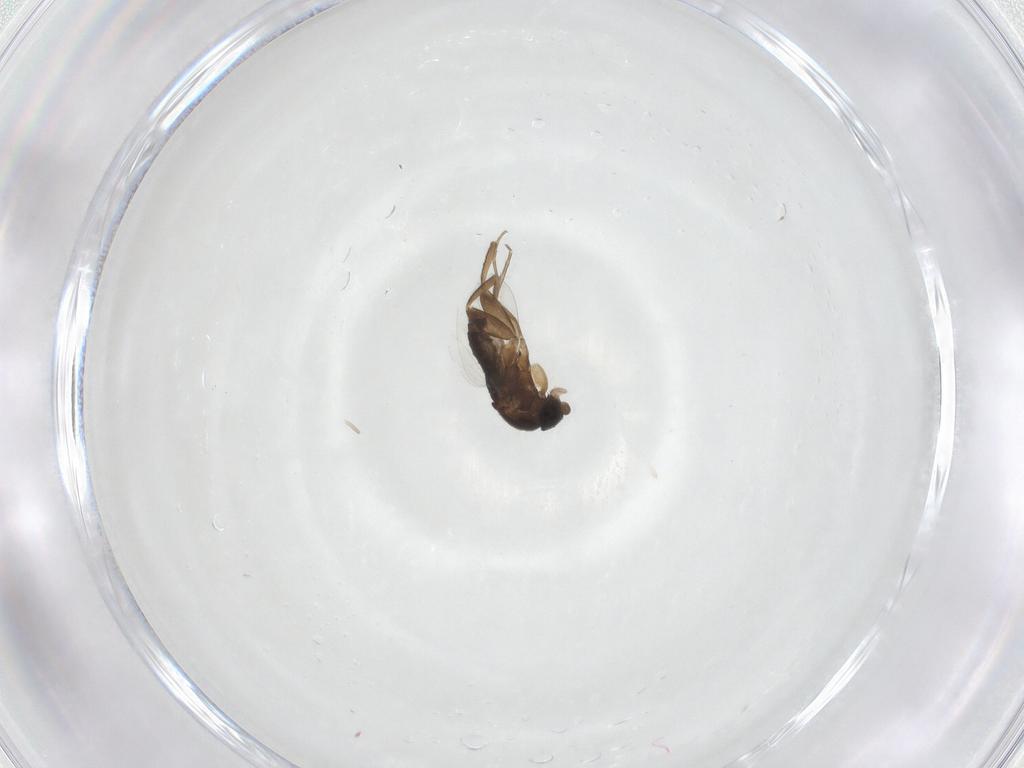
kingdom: Animalia
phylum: Arthropoda
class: Insecta
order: Diptera
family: Phoridae
